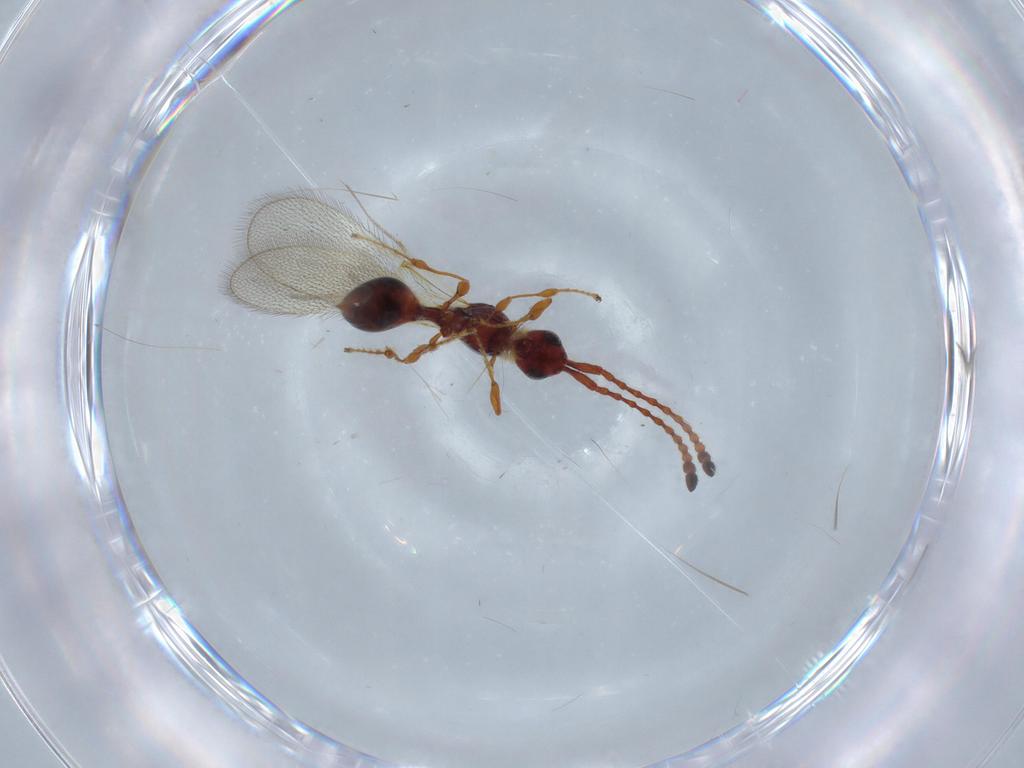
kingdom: Animalia
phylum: Arthropoda
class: Insecta
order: Hymenoptera
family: Diapriidae
